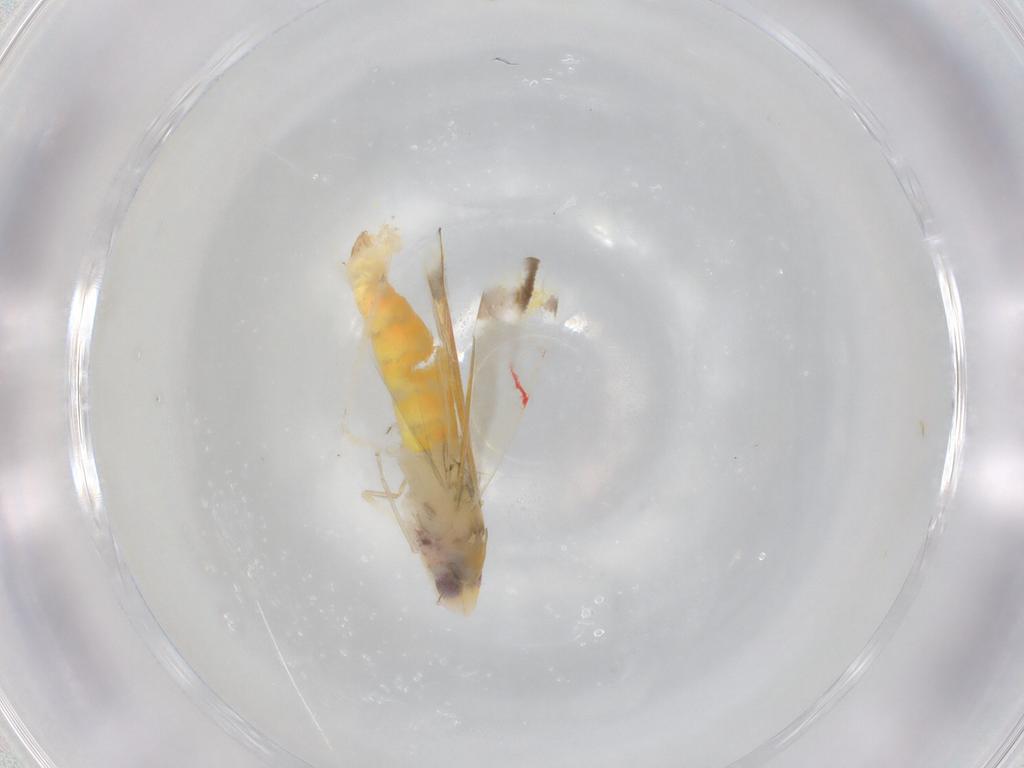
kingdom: Animalia
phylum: Arthropoda
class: Insecta
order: Hemiptera
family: Cicadellidae
